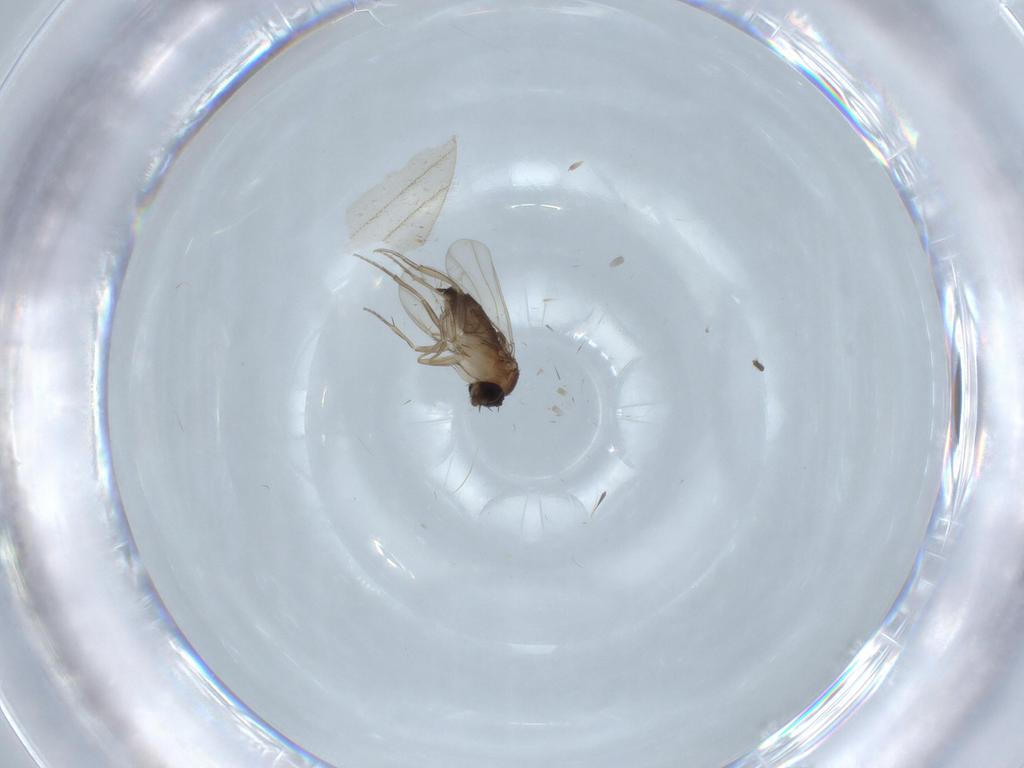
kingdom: Animalia
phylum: Arthropoda
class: Insecta
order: Diptera
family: Phoridae
